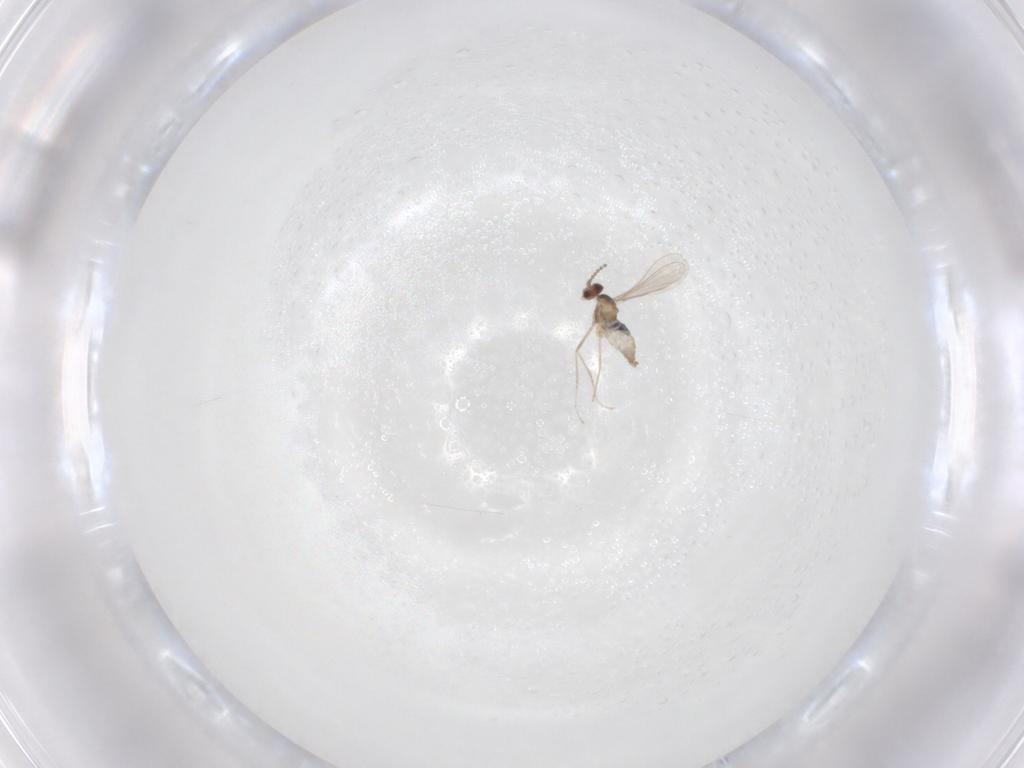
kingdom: Animalia
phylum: Arthropoda
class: Insecta
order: Diptera
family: Cecidomyiidae
